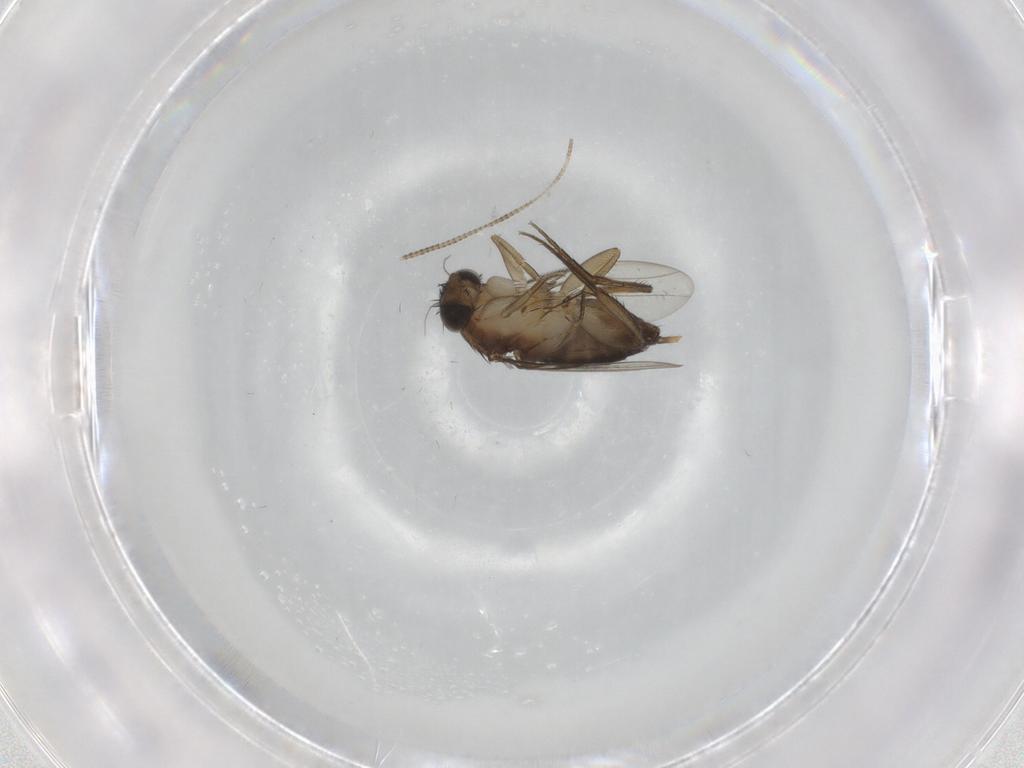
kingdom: Animalia
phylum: Arthropoda
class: Insecta
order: Diptera
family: Phoridae
